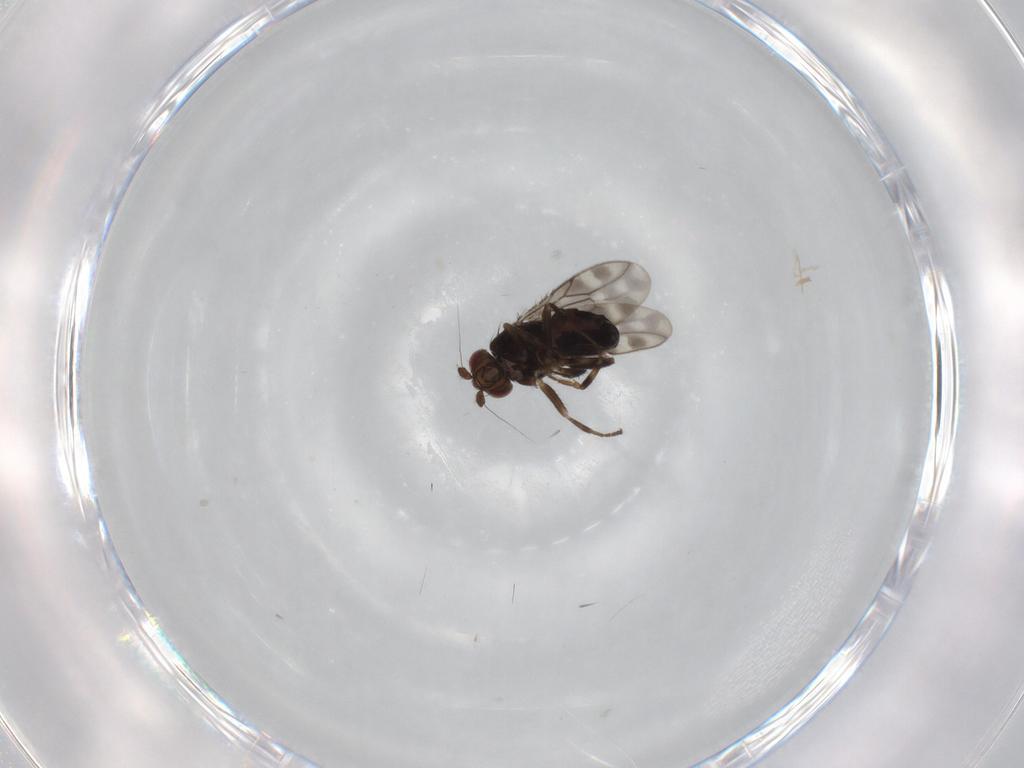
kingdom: Animalia
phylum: Arthropoda
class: Insecta
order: Diptera
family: Sphaeroceridae
